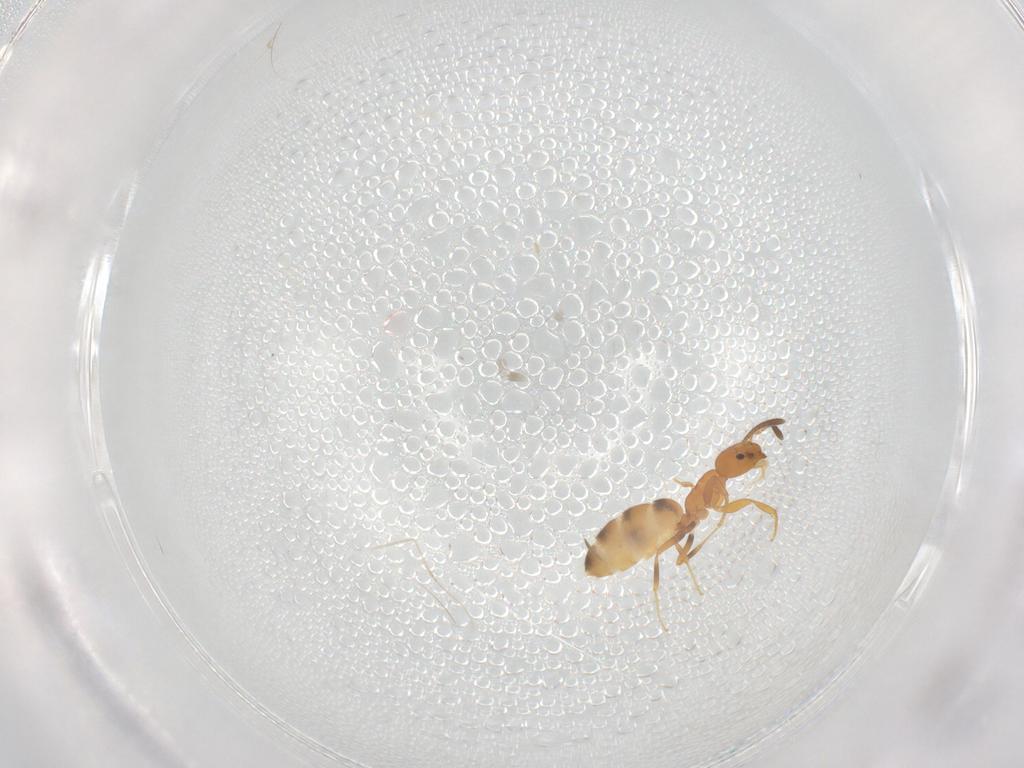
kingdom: Animalia
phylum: Arthropoda
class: Insecta
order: Hymenoptera
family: Formicidae
